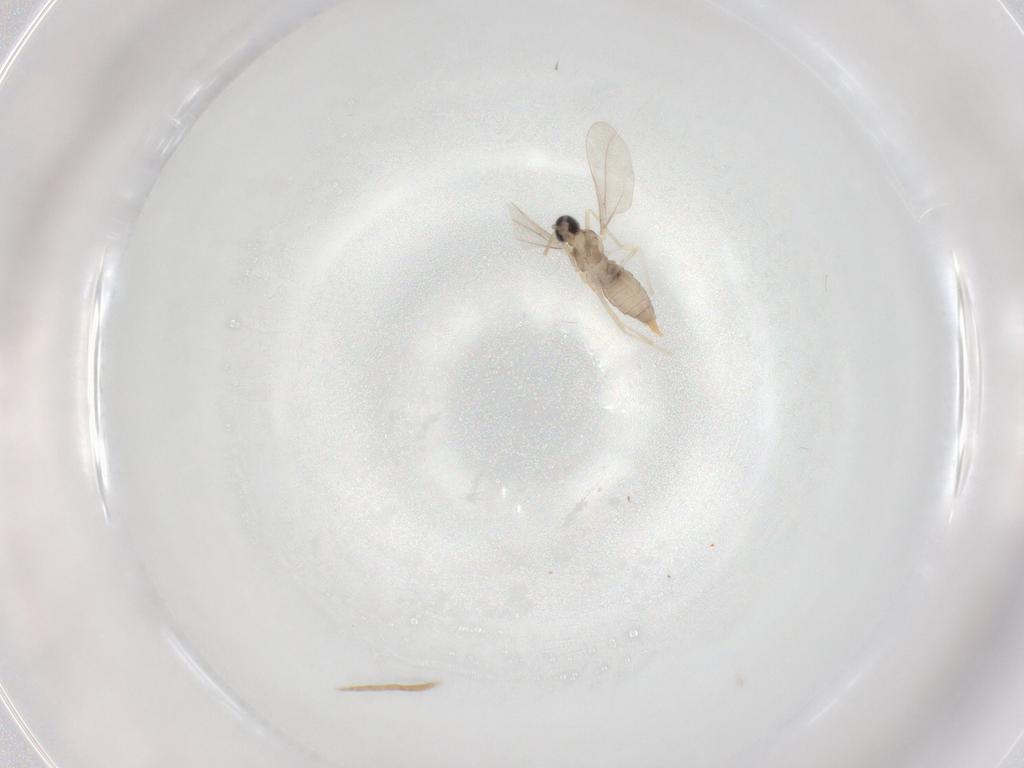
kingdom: Animalia
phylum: Arthropoda
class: Insecta
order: Diptera
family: Cecidomyiidae
